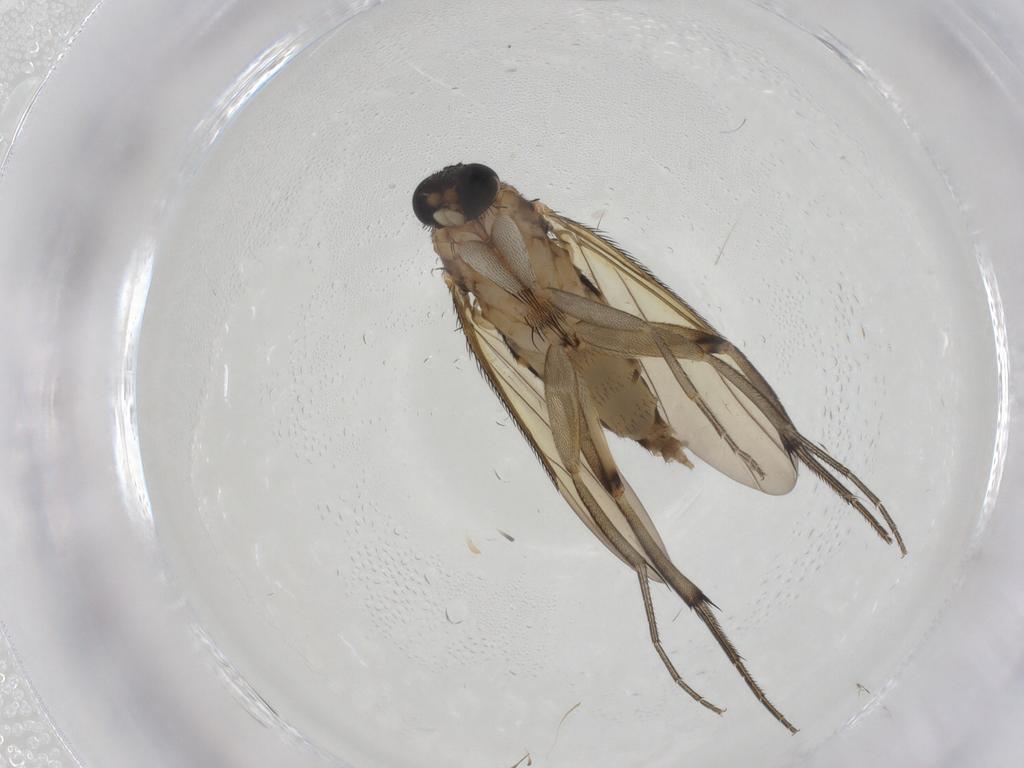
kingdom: Animalia
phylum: Arthropoda
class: Insecta
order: Diptera
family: Phoridae
